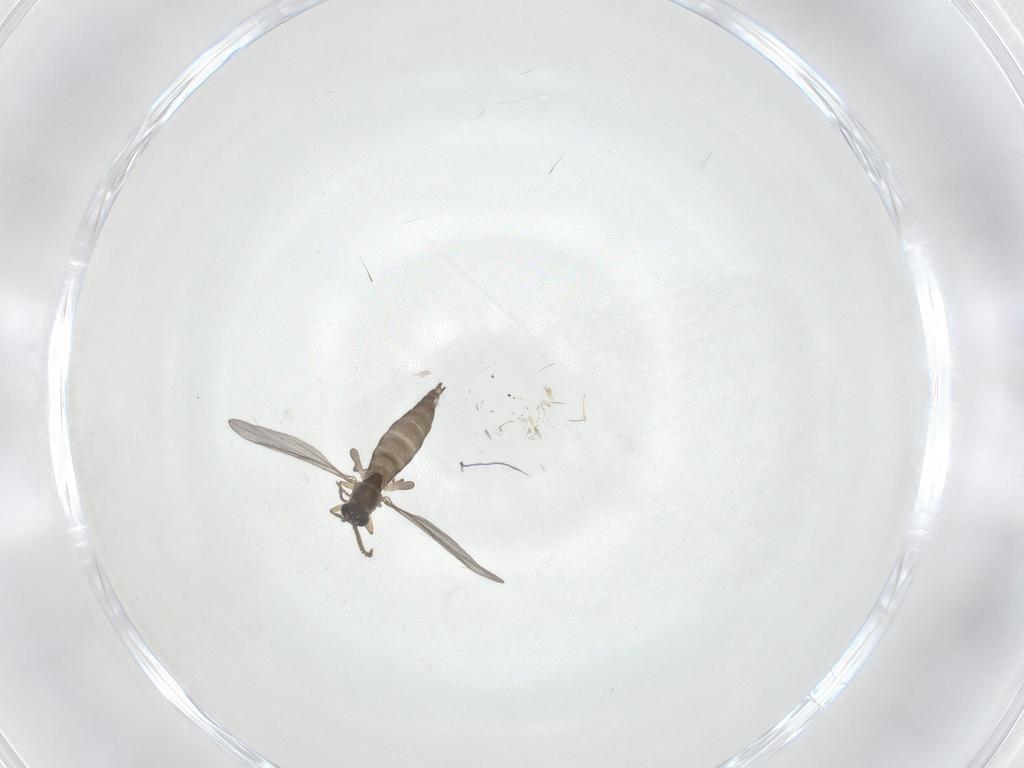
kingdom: Animalia
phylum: Arthropoda
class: Insecta
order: Diptera
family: Sciaridae
